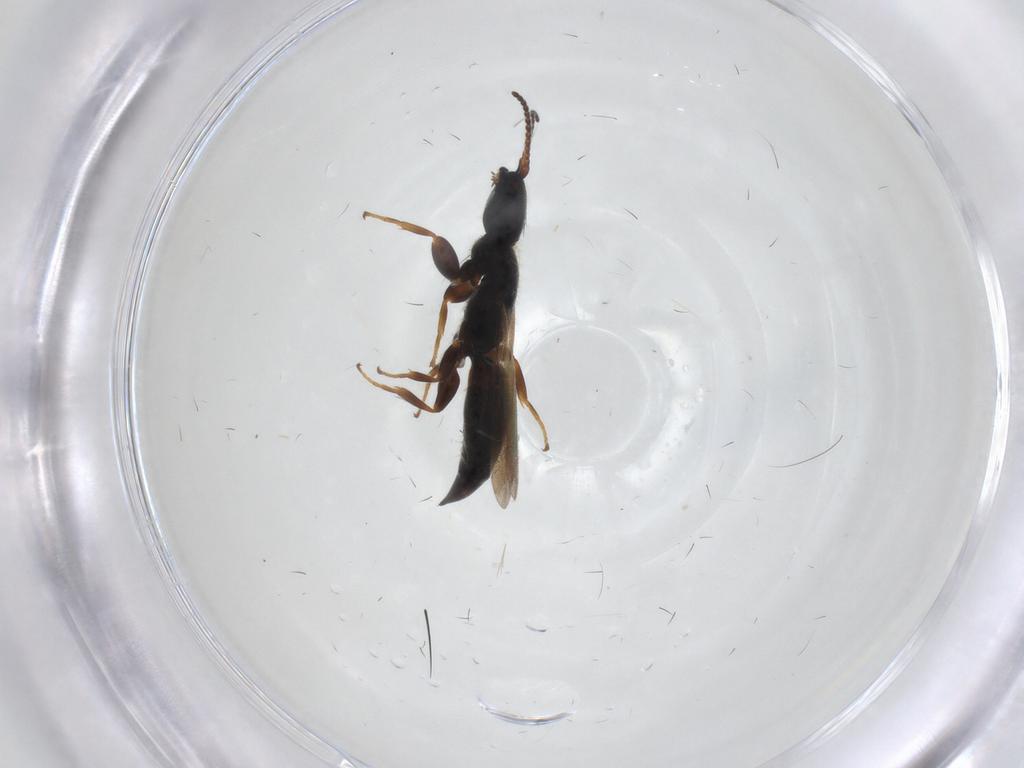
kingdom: Animalia
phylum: Arthropoda
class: Insecta
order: Hymenoptera
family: Bethylidae
